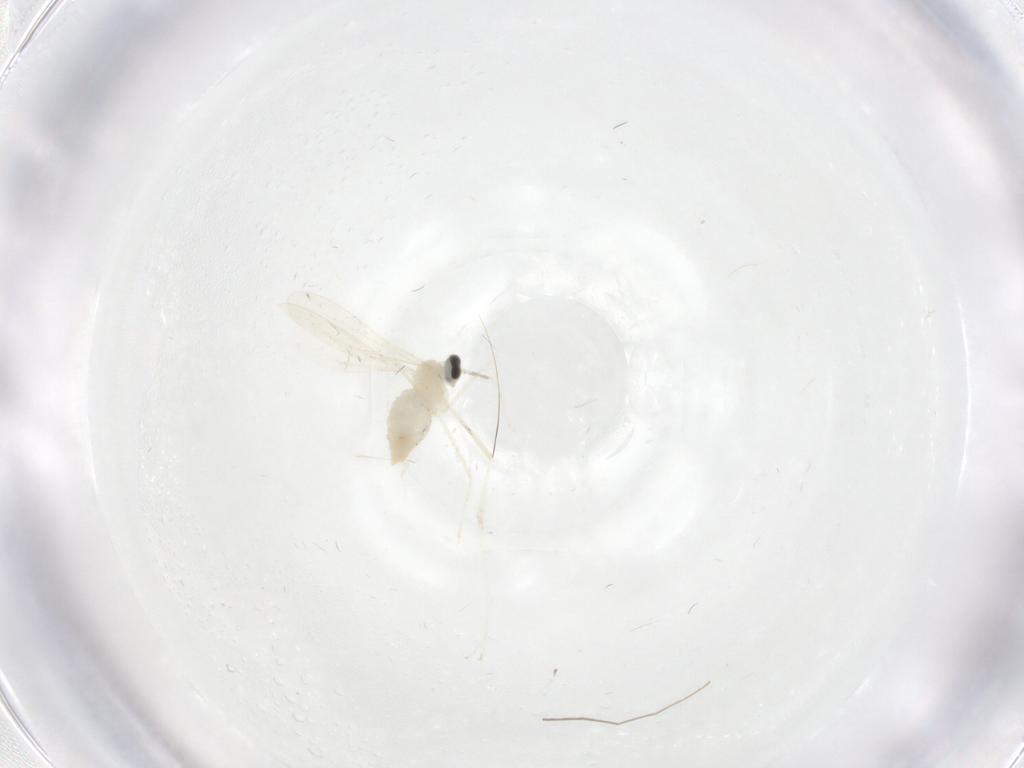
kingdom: Animalia
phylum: Arthropoda
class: Insecta
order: Diptera
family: Cecidomyiidae
